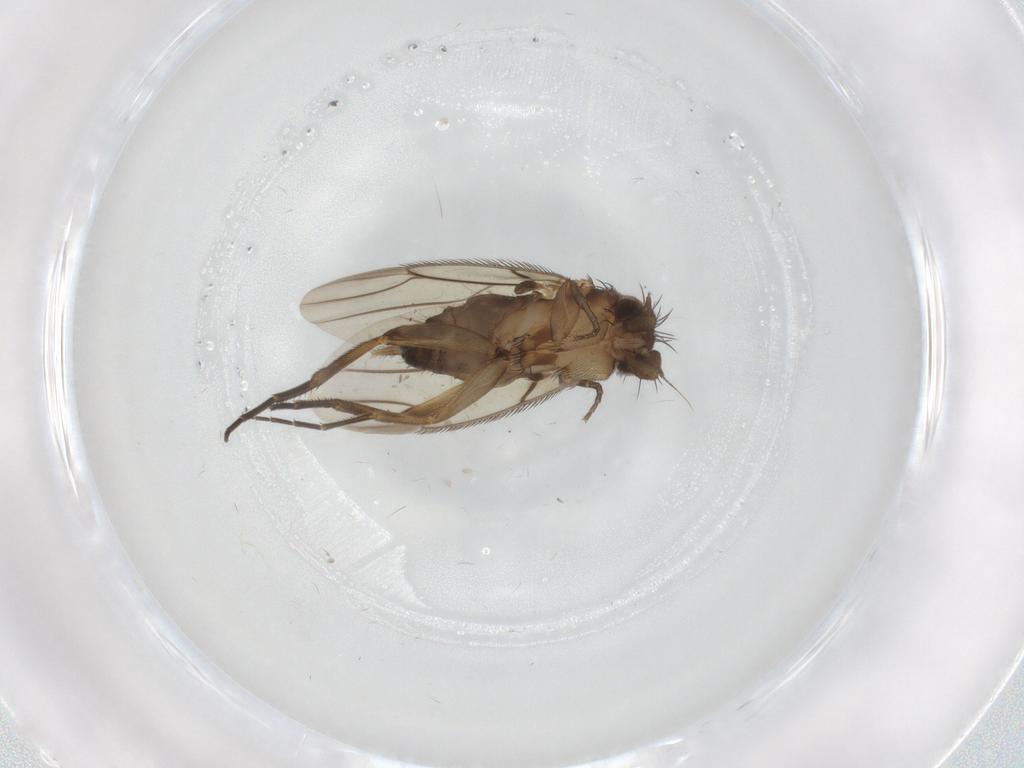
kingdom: Animalia
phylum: Arthropoda
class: Insecta
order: Diptera
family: Phoridae
